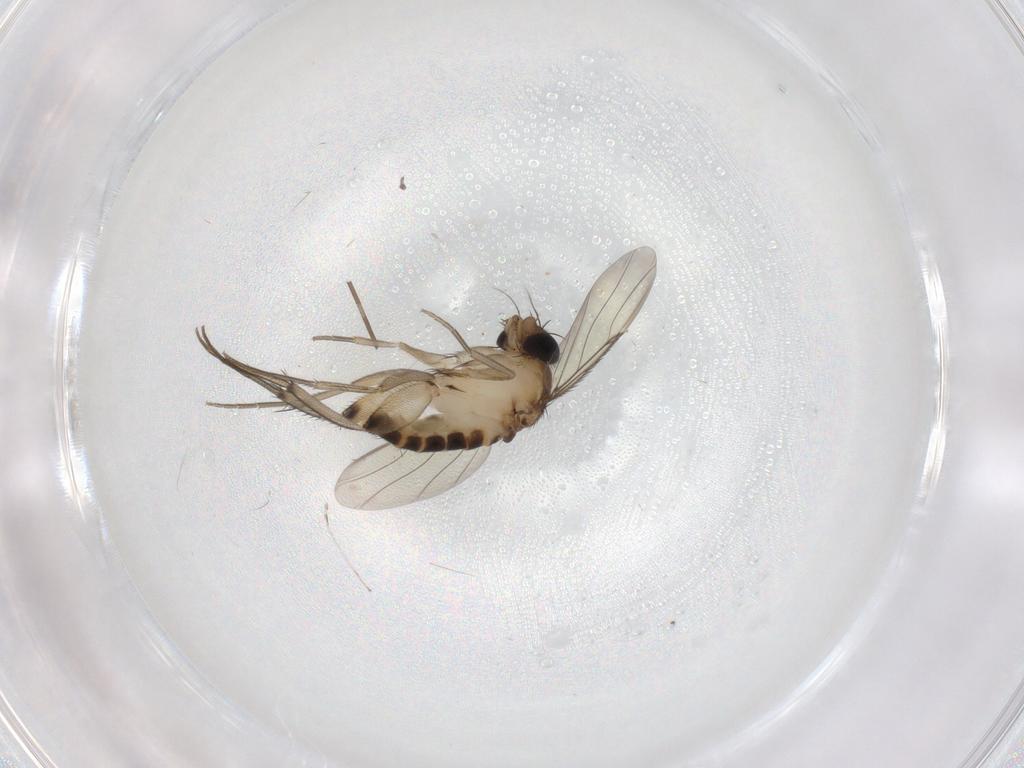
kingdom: Animalia
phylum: Arthropoda
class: Insecta
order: Diptera
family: Phoridae
